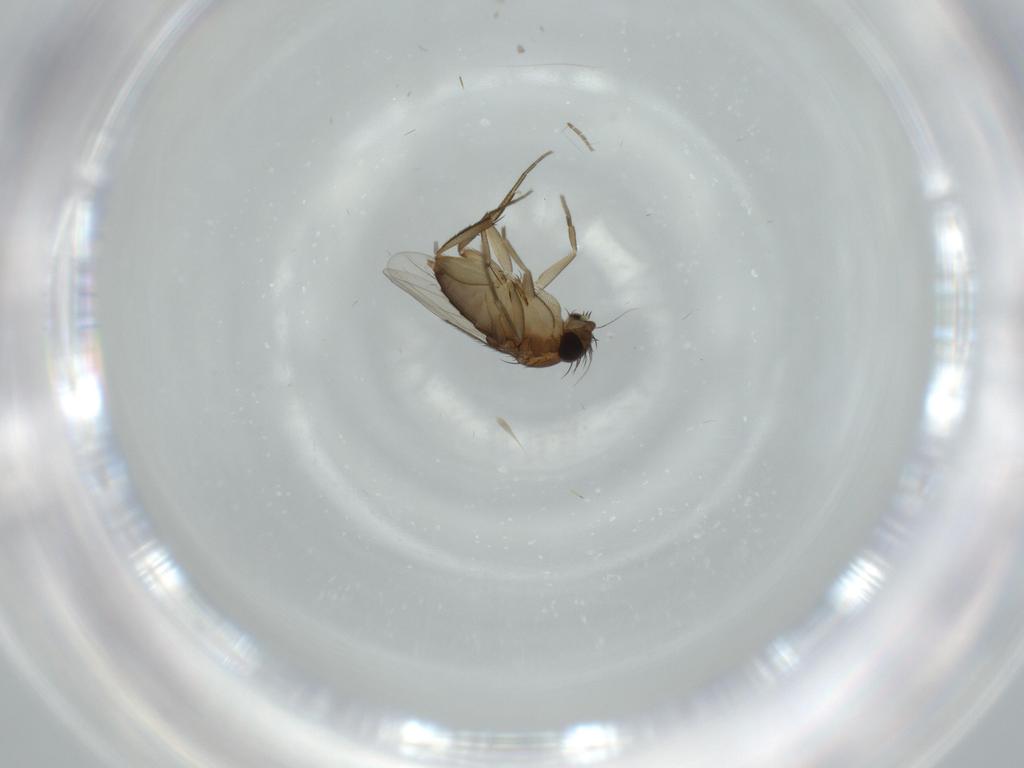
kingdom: Animalia
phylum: Arthropoda
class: Insecta
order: Diptera
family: Phoridae
